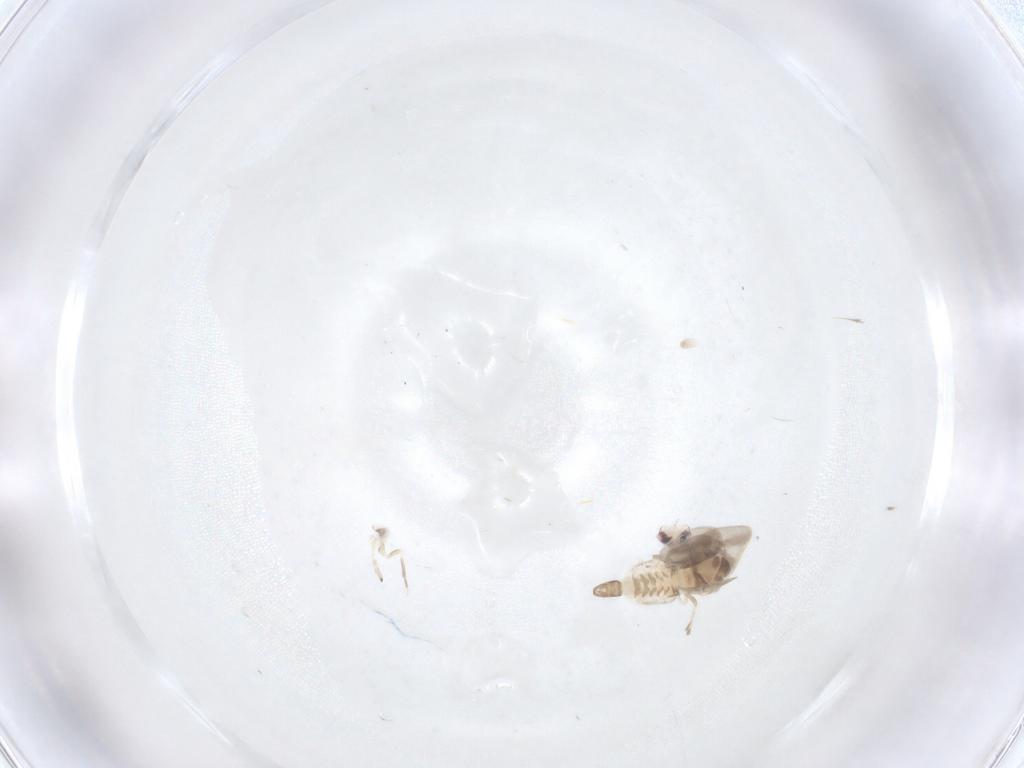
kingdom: Animalia
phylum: Arthropoda
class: Insecta
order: Hemiptera
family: Aleyrodidae
